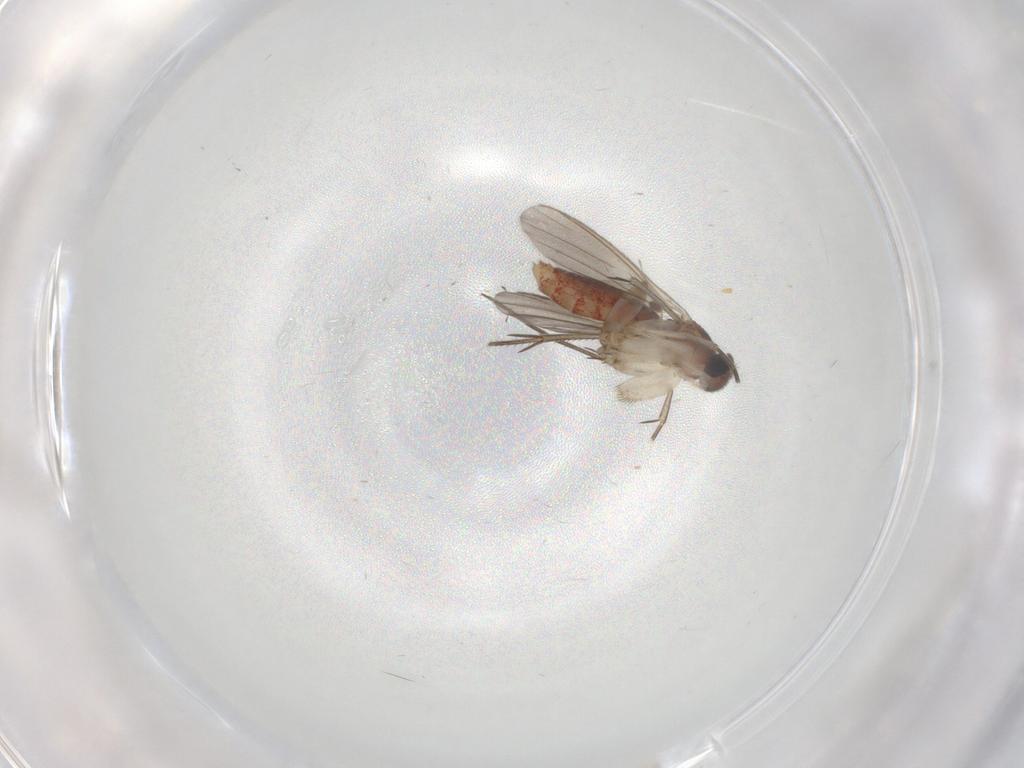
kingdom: Animalia
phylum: Arthropoda
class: Insecta
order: Diptera
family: Mycetophilidae
